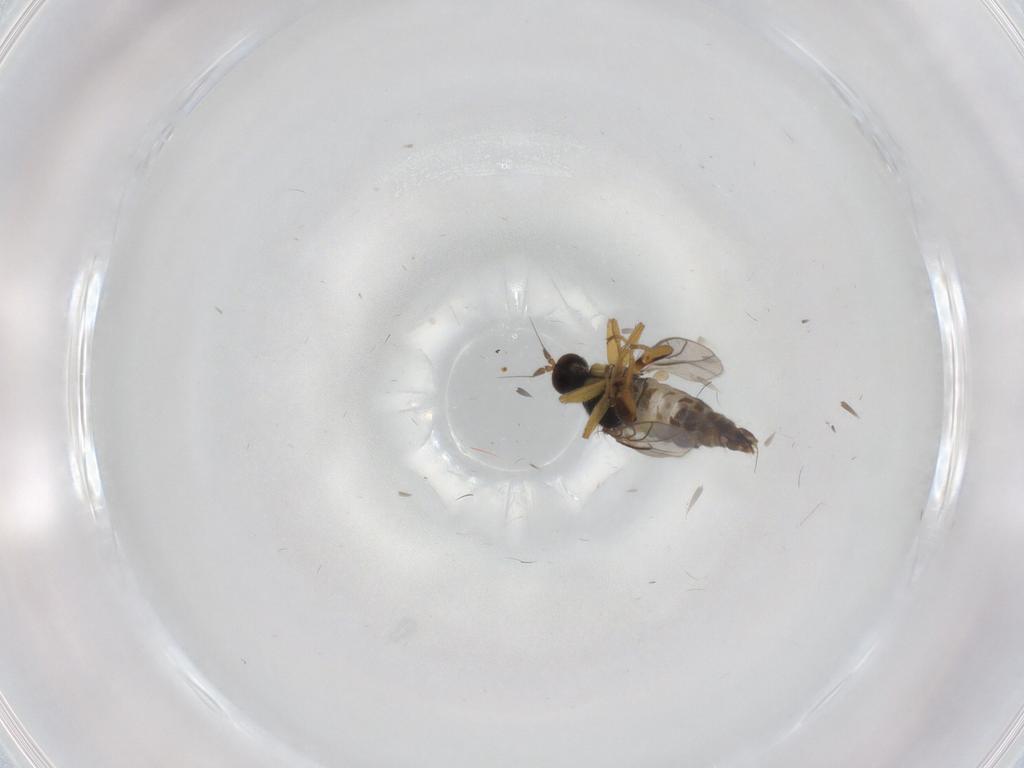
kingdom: Animalia
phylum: Arthropoda
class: Insecta
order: Diptera
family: Hybotidae
